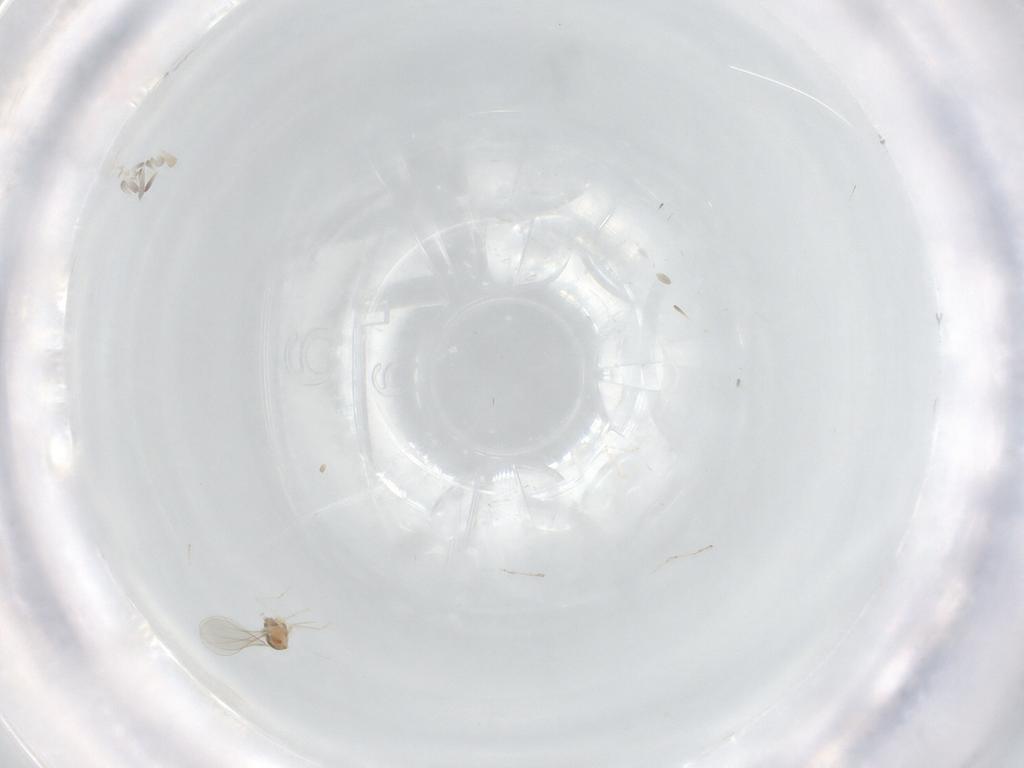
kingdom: Animalia
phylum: Arthropoda
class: Insecta
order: Diptera
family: Cecidomyiidae
